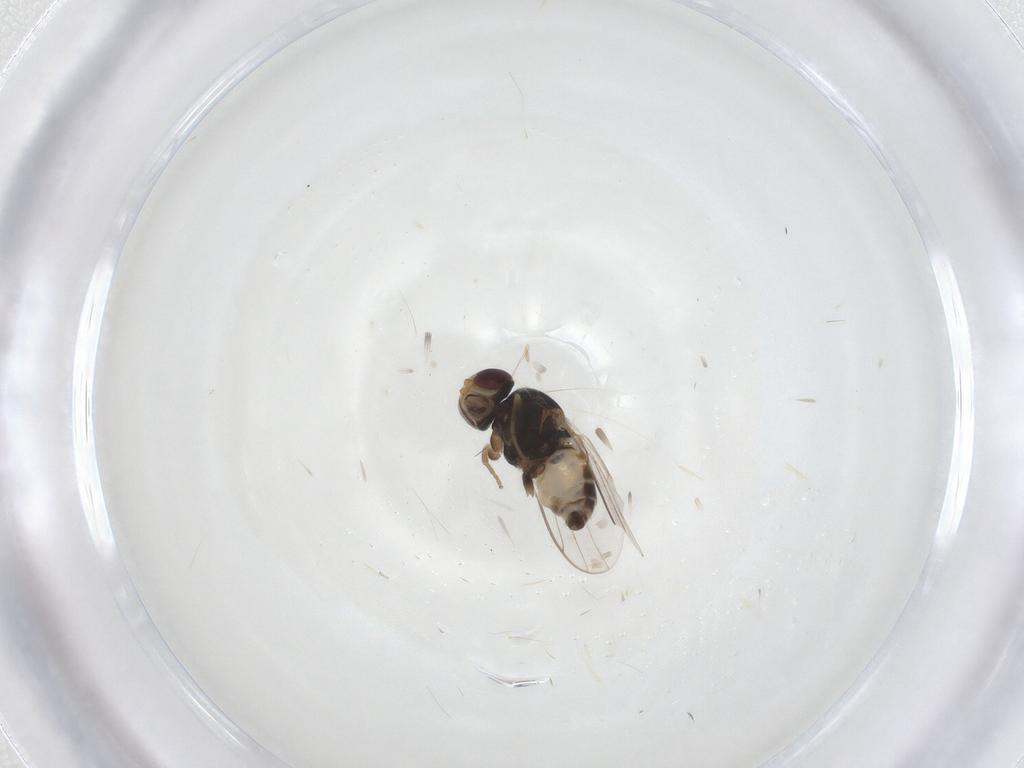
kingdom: Animalia
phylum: Arthropoda
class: Insecta
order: Diptera
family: Chloropidae
